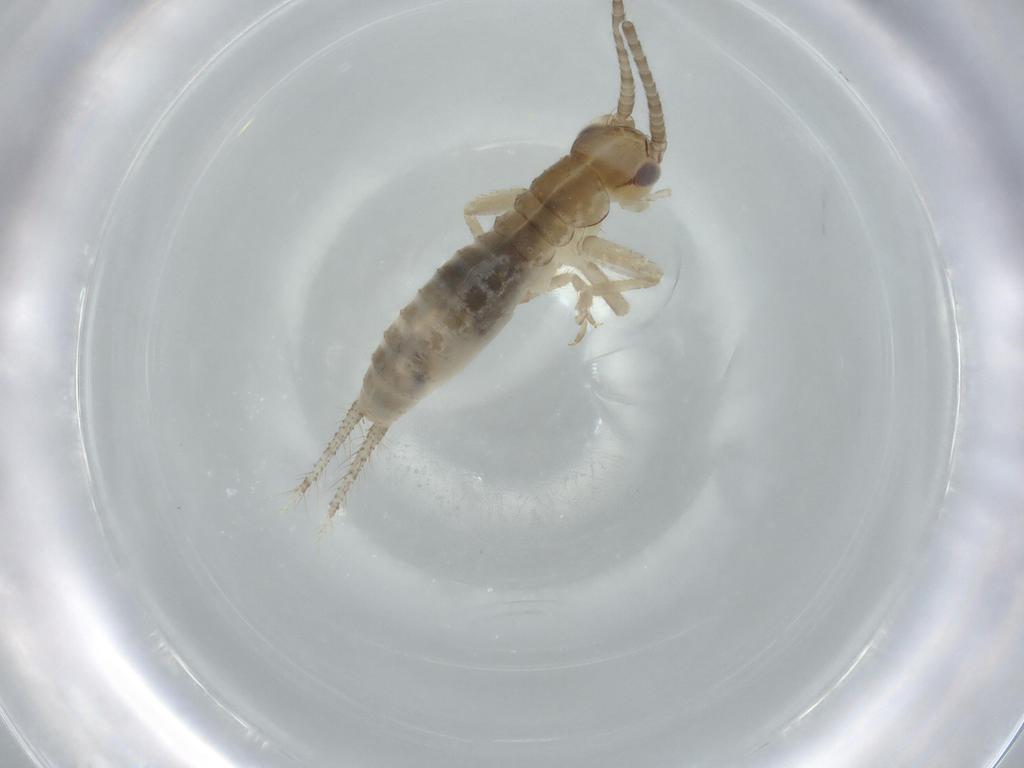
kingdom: Animalia
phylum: Arthropoda
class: Insecta
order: Orthoptera
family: Gryllidae
